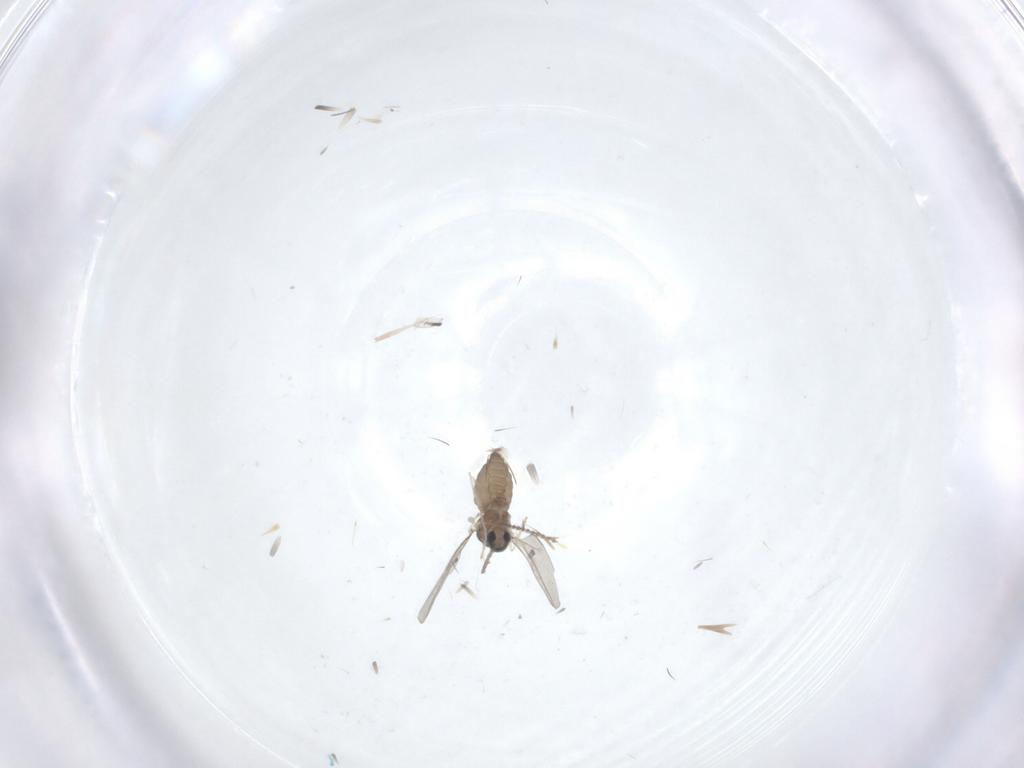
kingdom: Animalia
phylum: Arthropoda
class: Insecta
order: Diptera
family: Cecidomyiidae
